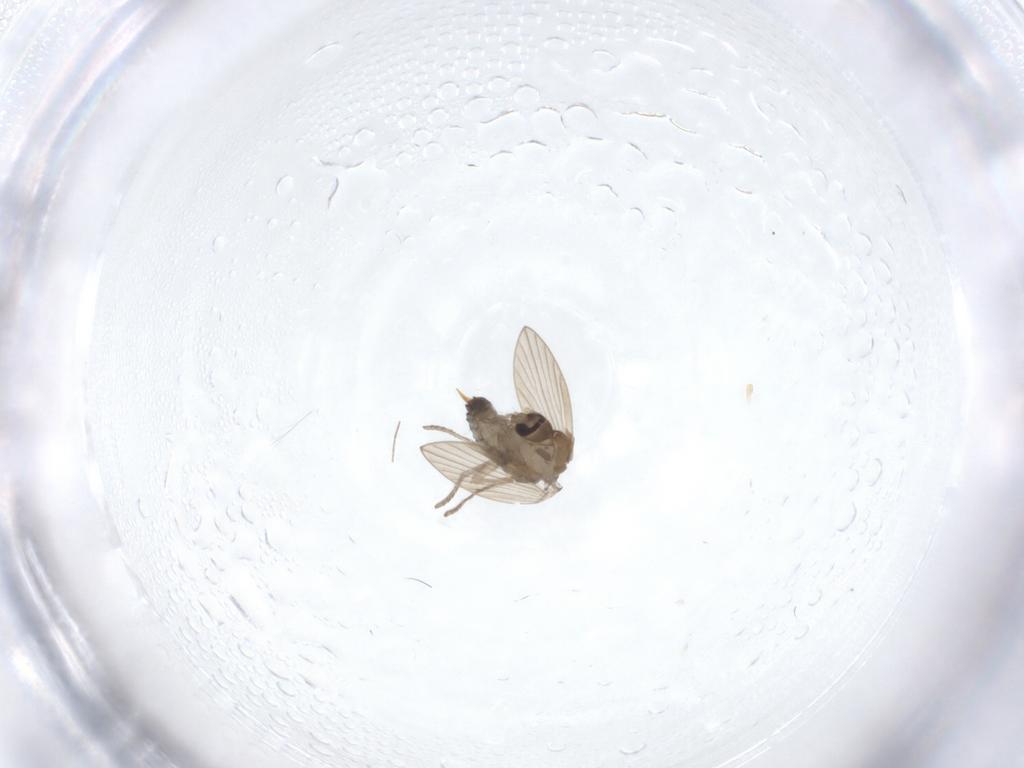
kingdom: Animalia
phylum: Arthropoda
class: Insecta
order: Diptera
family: Psychodidae
